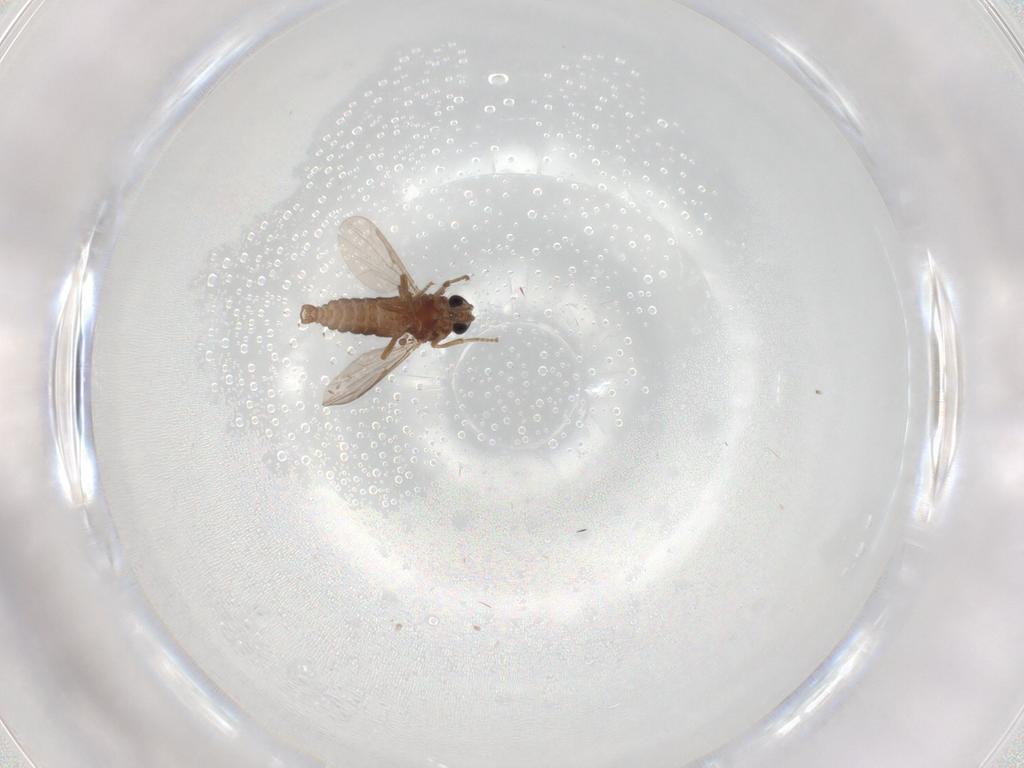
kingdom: Animalia
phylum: Arthropoda
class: Insecta
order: Diptera
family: Ceratopogonidae
